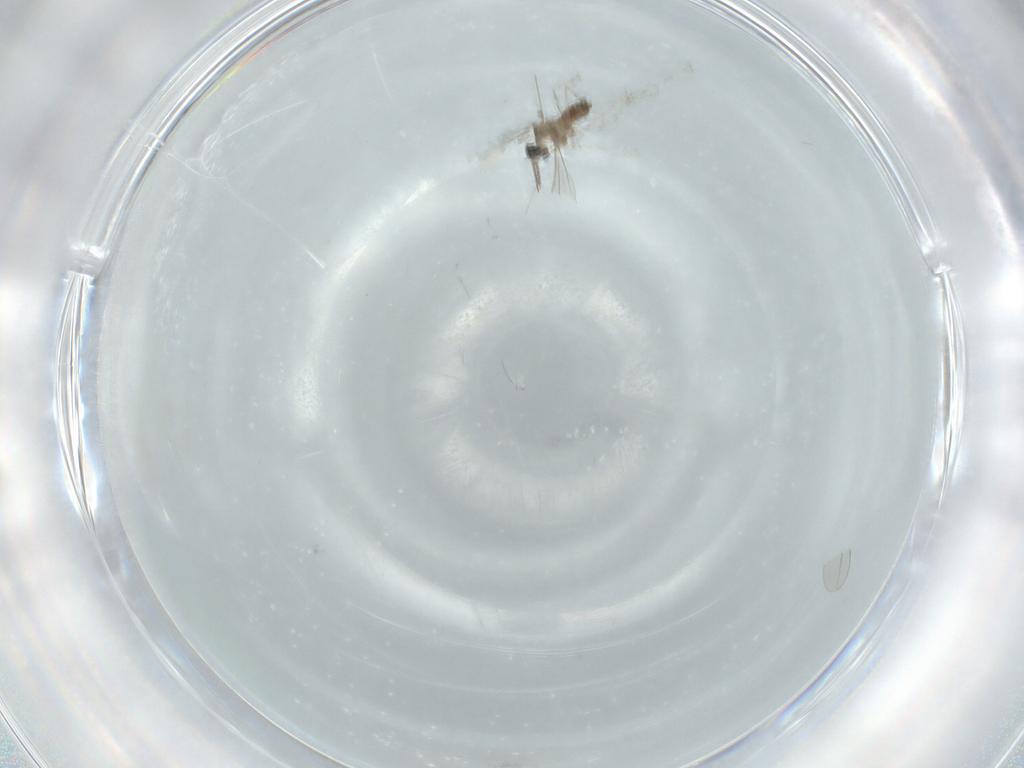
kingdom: Animalia
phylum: Arthropoda
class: Insecta
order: Diptera
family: Cecidomyiidae
